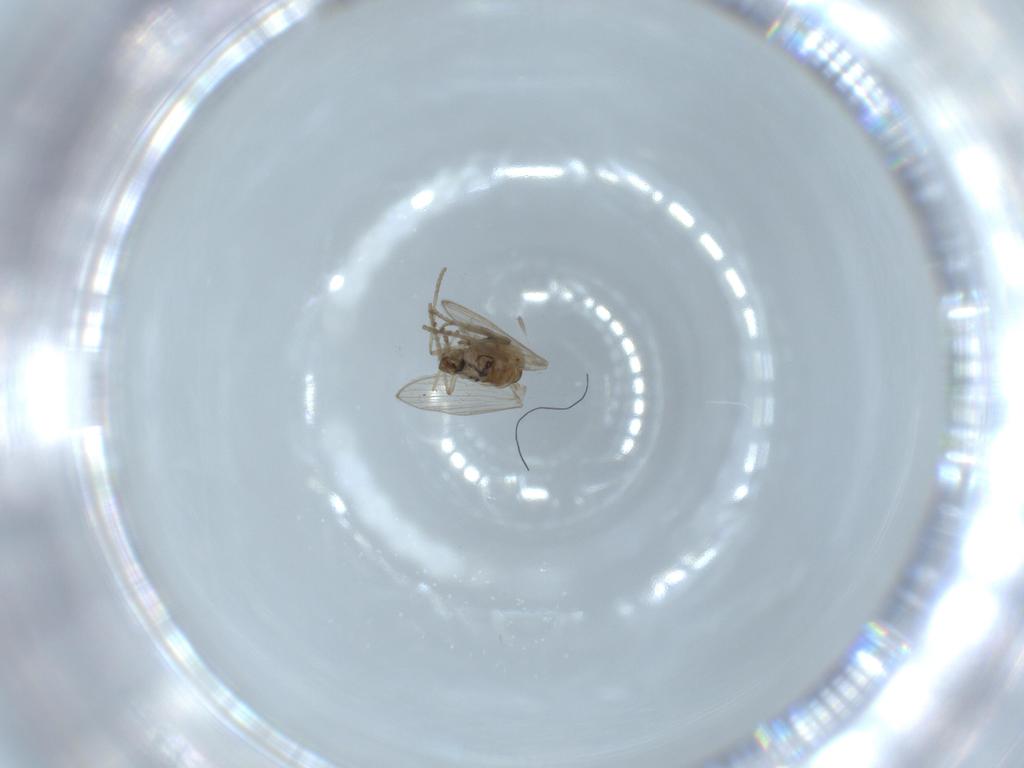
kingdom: Animalia
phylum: Arthropoda
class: Insecta
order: Diptera
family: Psychodidae
